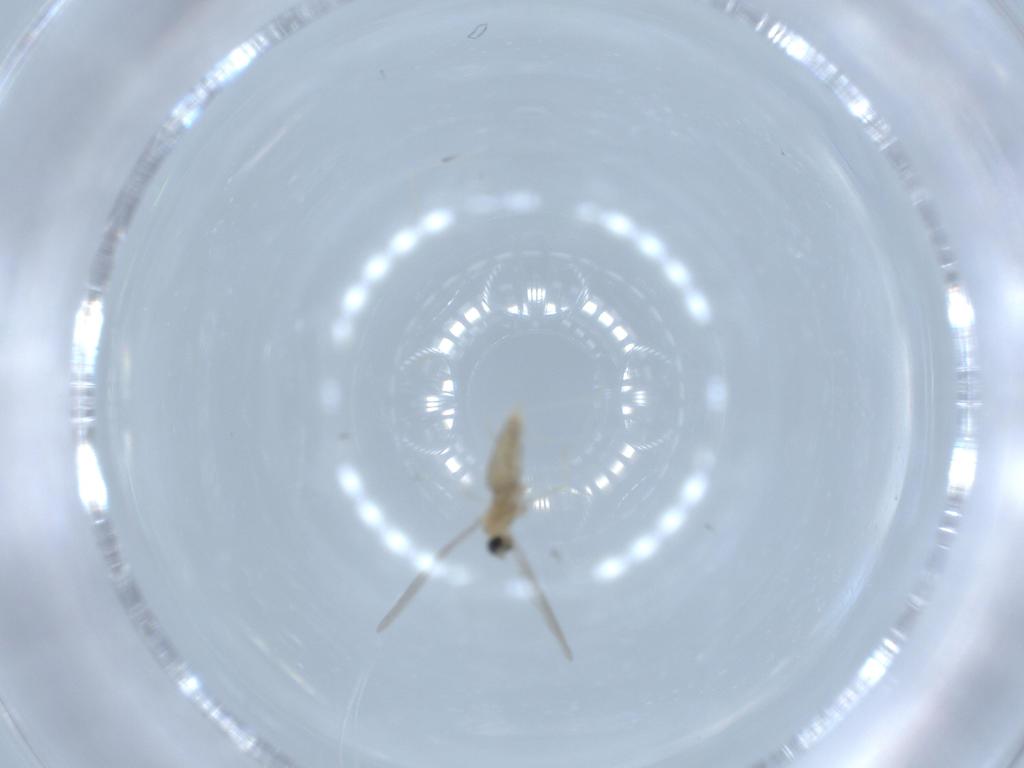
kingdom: Animalia
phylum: Arthropoda
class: Insecta
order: Diptera
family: Cecidomyiidae
